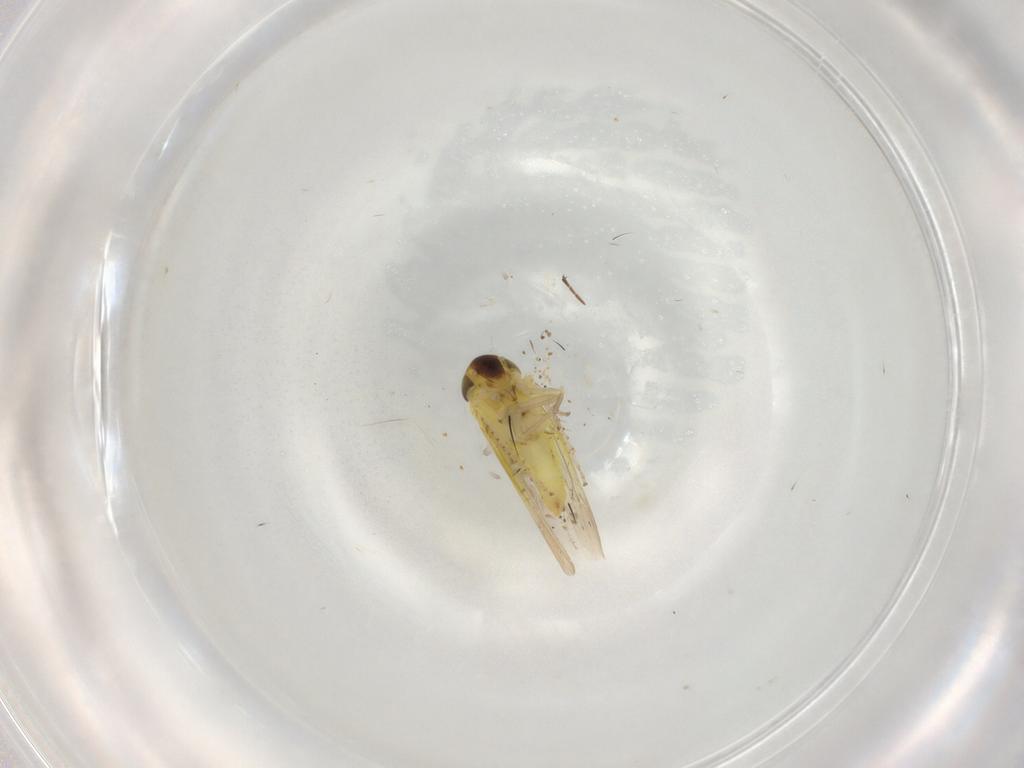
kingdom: Animalia
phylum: Arthropoda
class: Insecta
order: Hemiptera
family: Cicadellidae
